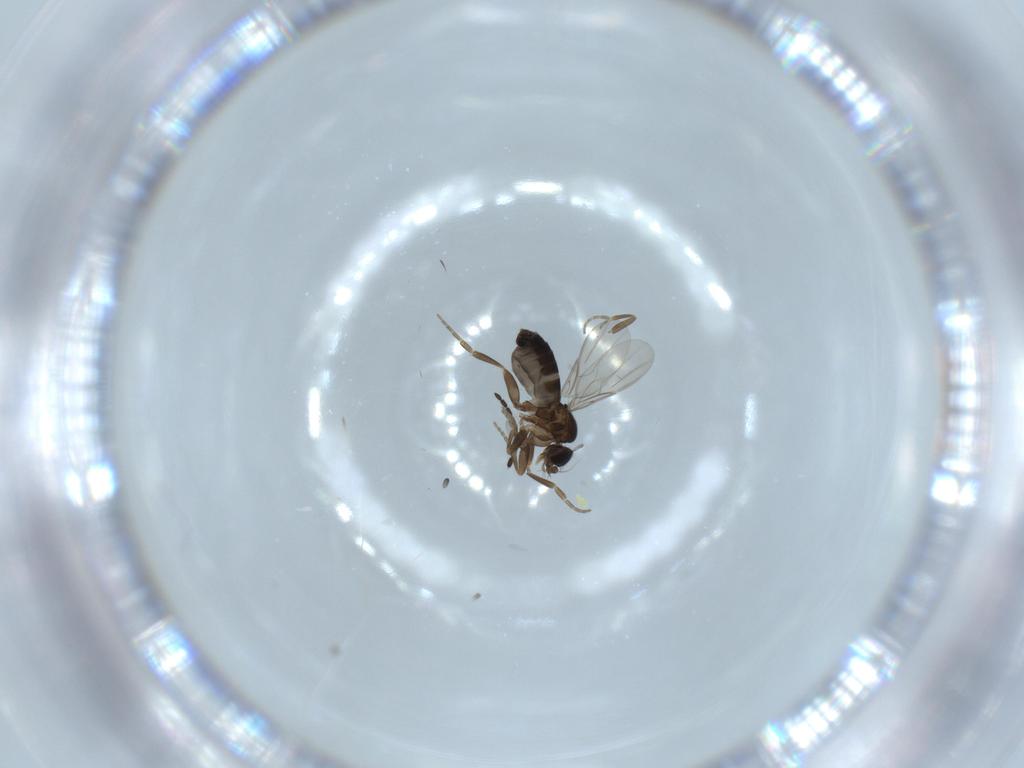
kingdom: Animalia
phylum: Arthropoda
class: Insecta
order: Diptera
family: Phoridae
